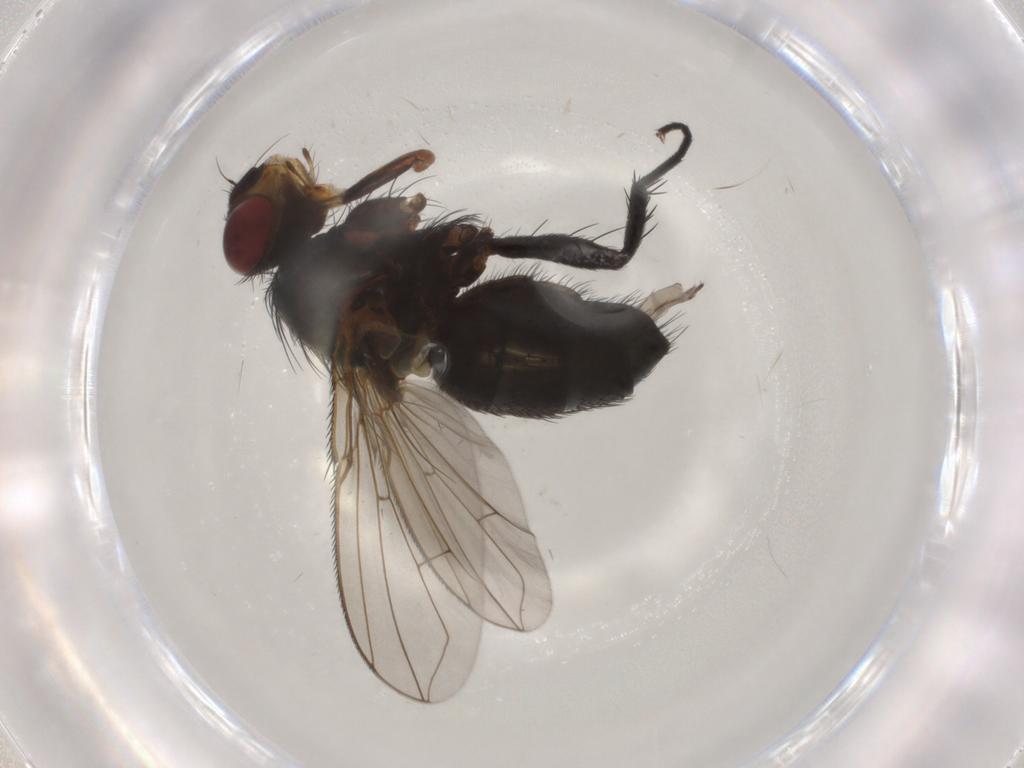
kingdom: Animalia
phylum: Arthropoda
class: Insecta
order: Diptera
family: Calliphoridae
